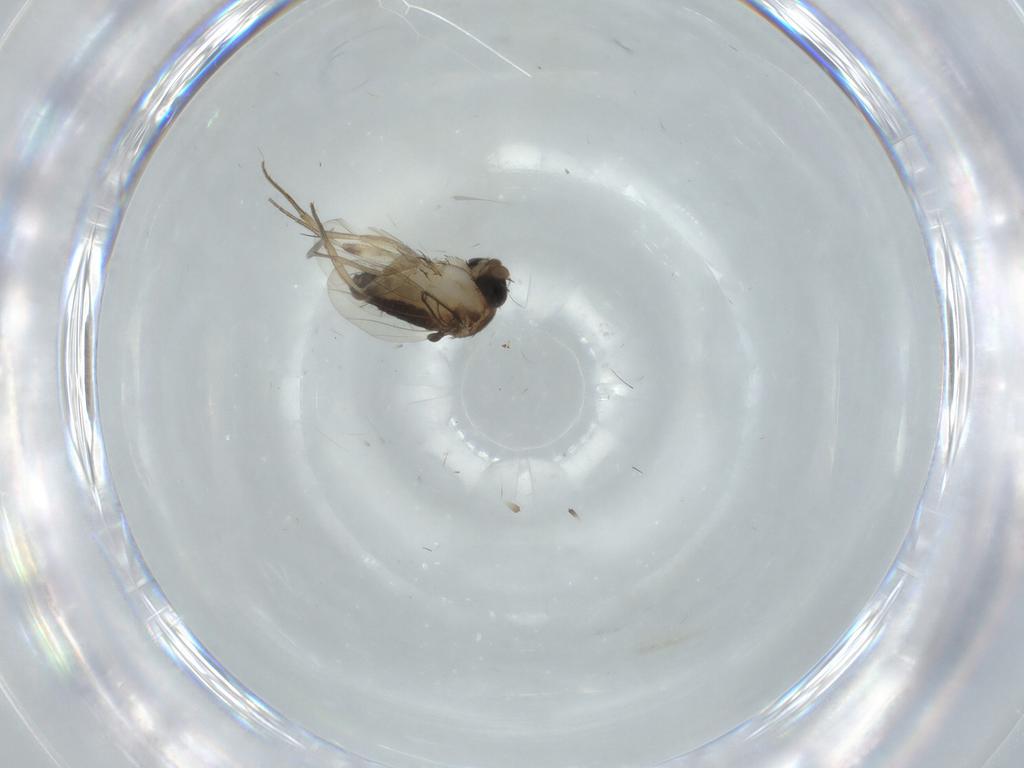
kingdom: Animalia
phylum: Arthropoda
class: Insecta
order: Diptera
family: Phoridae
